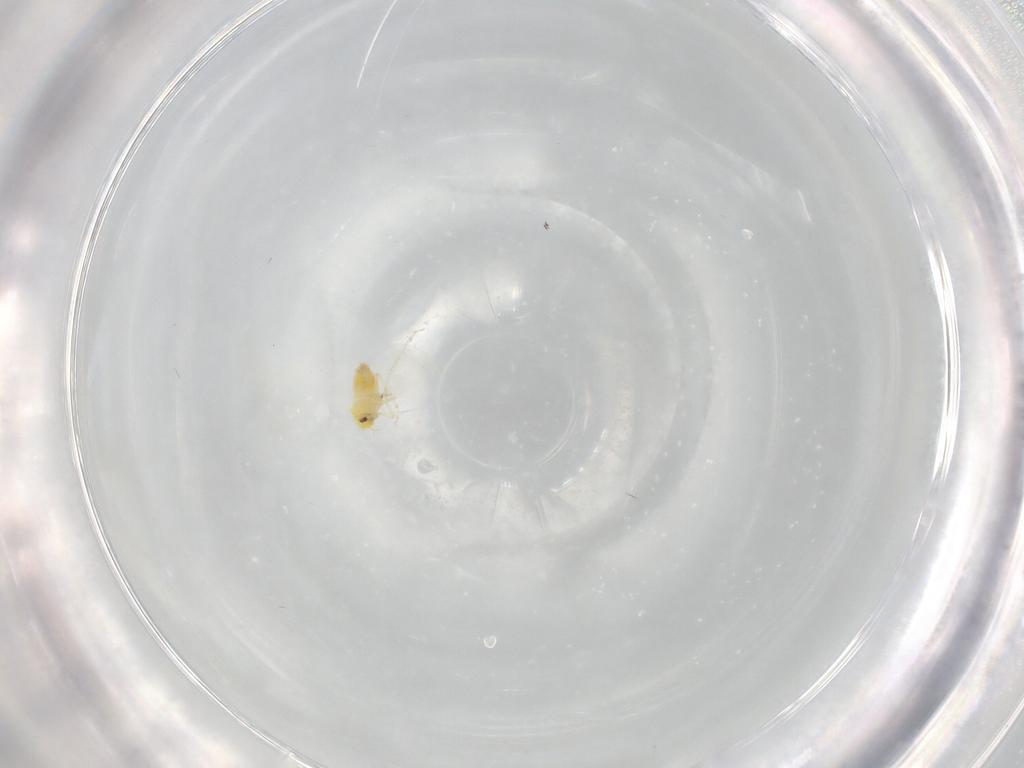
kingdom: Animalia
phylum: Arthropoda
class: Insecta
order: Hemiptera
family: Aleyrodidae
